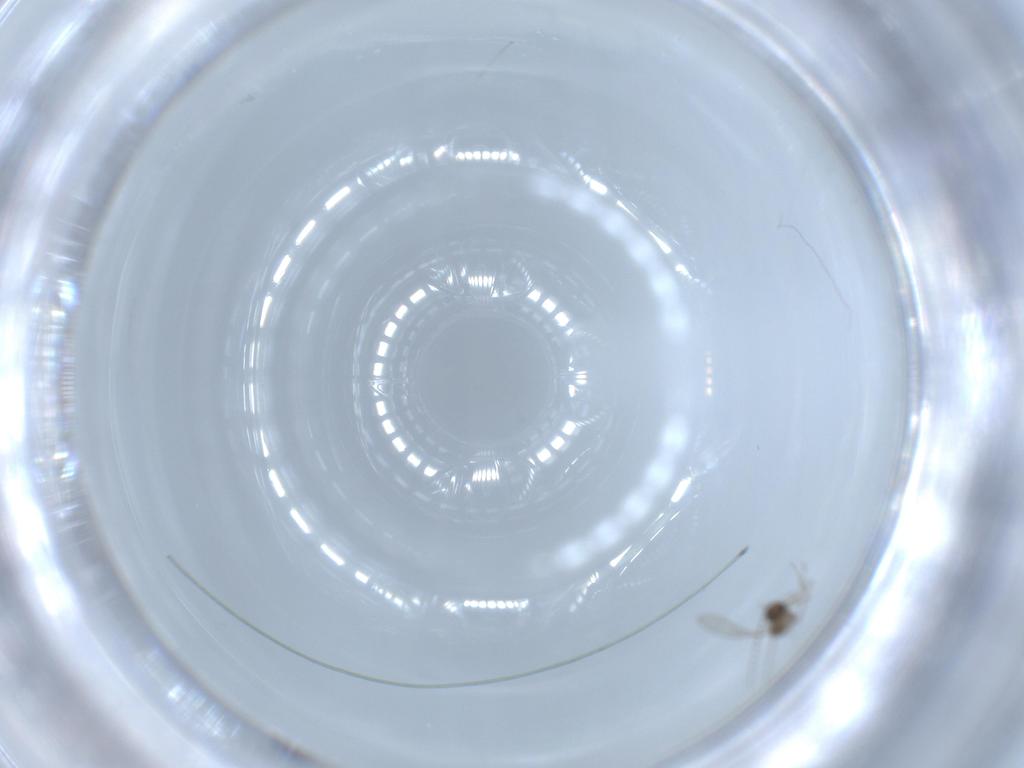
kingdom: Animalia
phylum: Arthropoda
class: Insecta
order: Diptera
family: Cecidomyiidae
